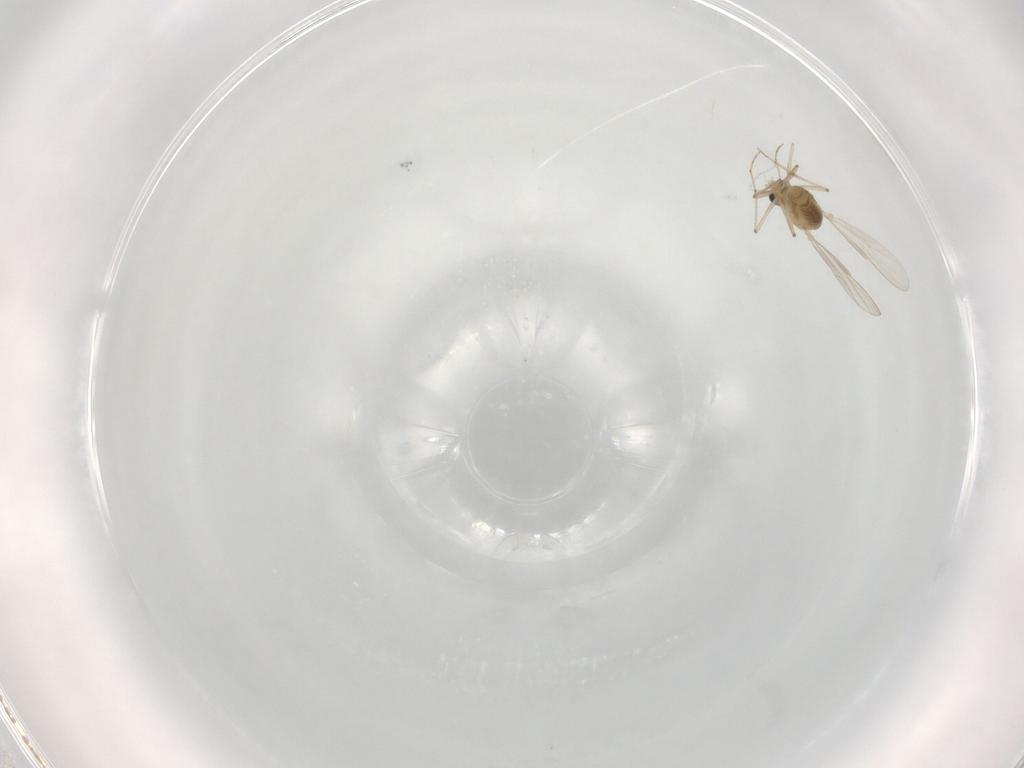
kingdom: Animalia
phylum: Arthropoda
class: Insecta
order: Diptera
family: Chironomidae
